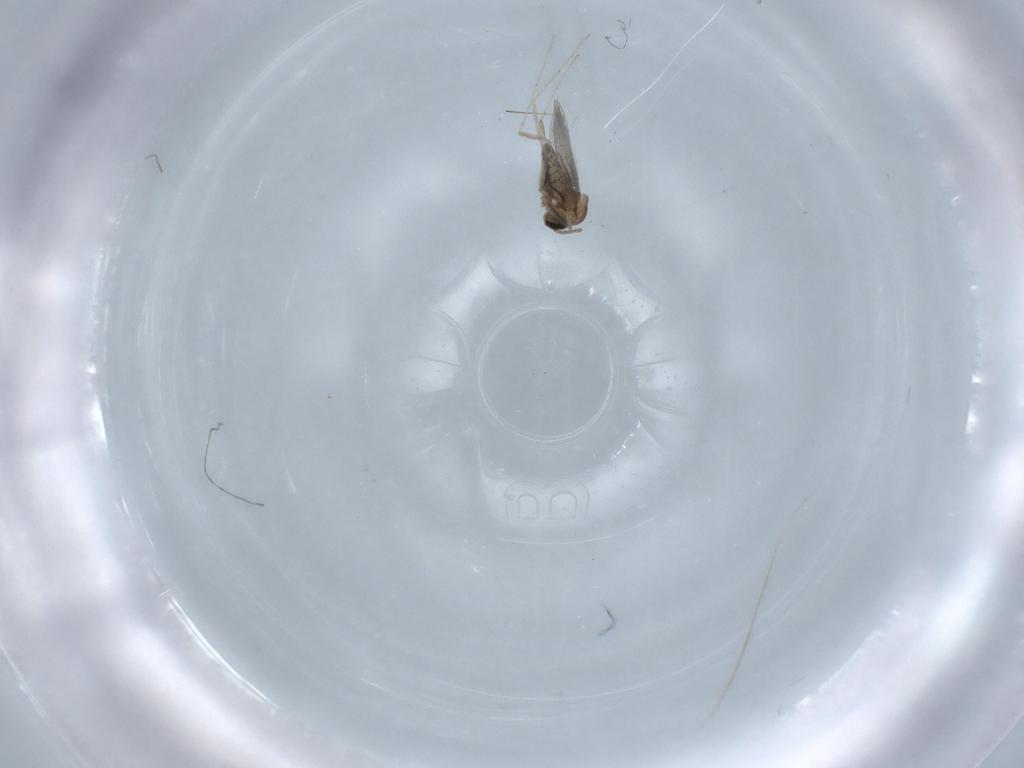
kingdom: Animalia
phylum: Arthropoda
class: Insecta
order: Diptera
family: Cecidomyiidae
